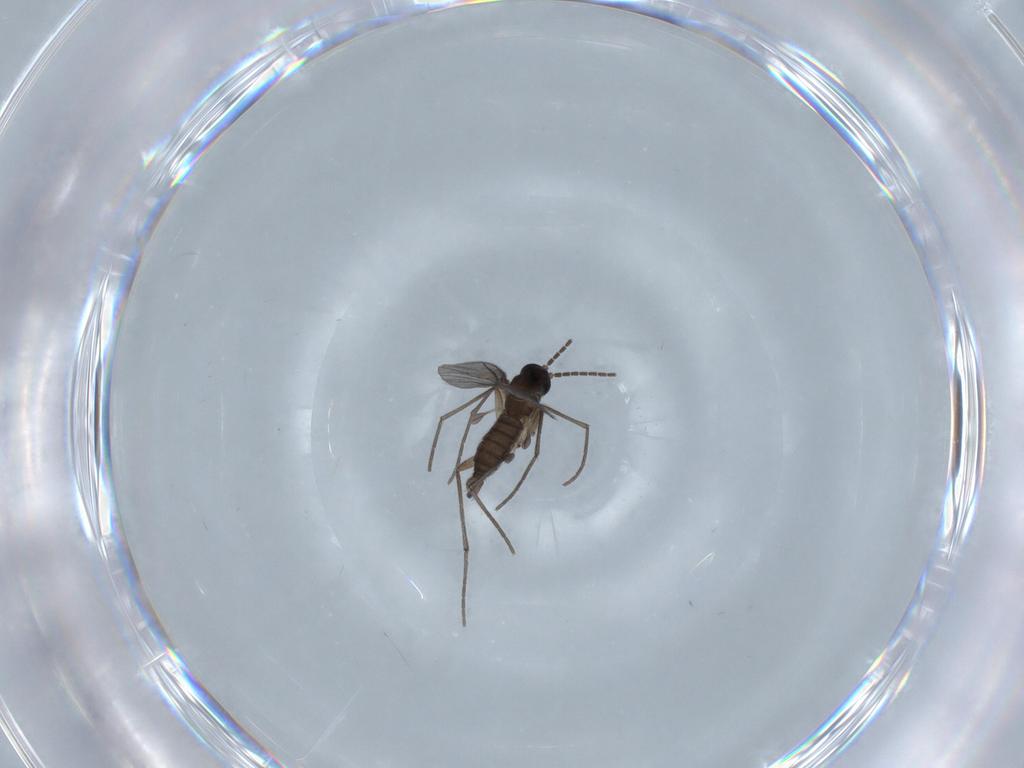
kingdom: Animalia
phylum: Arthropoda
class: Insecta
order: Diptera
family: Sciaridae
